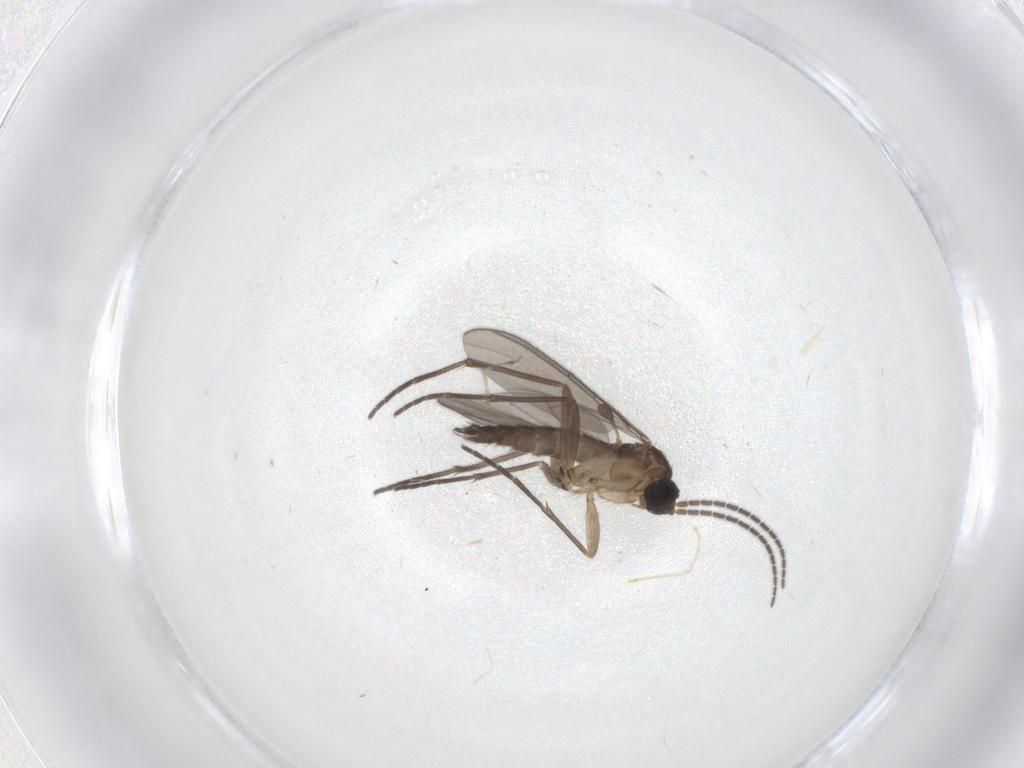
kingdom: Animalia
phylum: Arthropoda
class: Insecta
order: Diptera
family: Sciaridae
